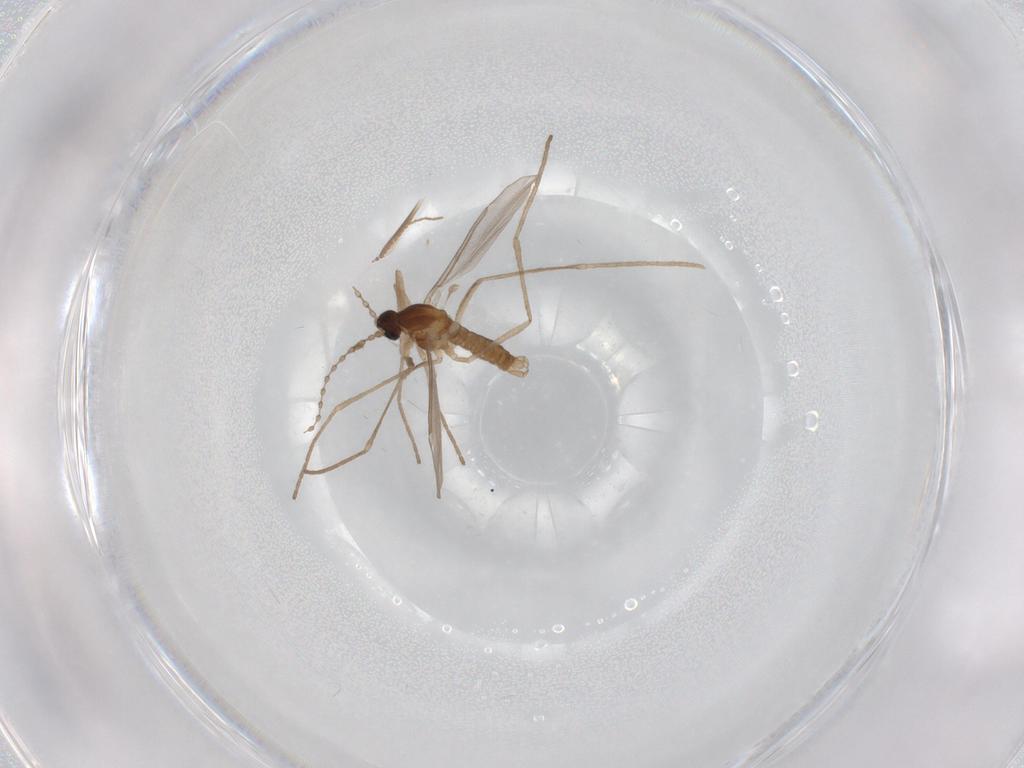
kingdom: Animalia
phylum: Arthropoda
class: Insecta
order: Diptera
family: Cecidomyiidae
